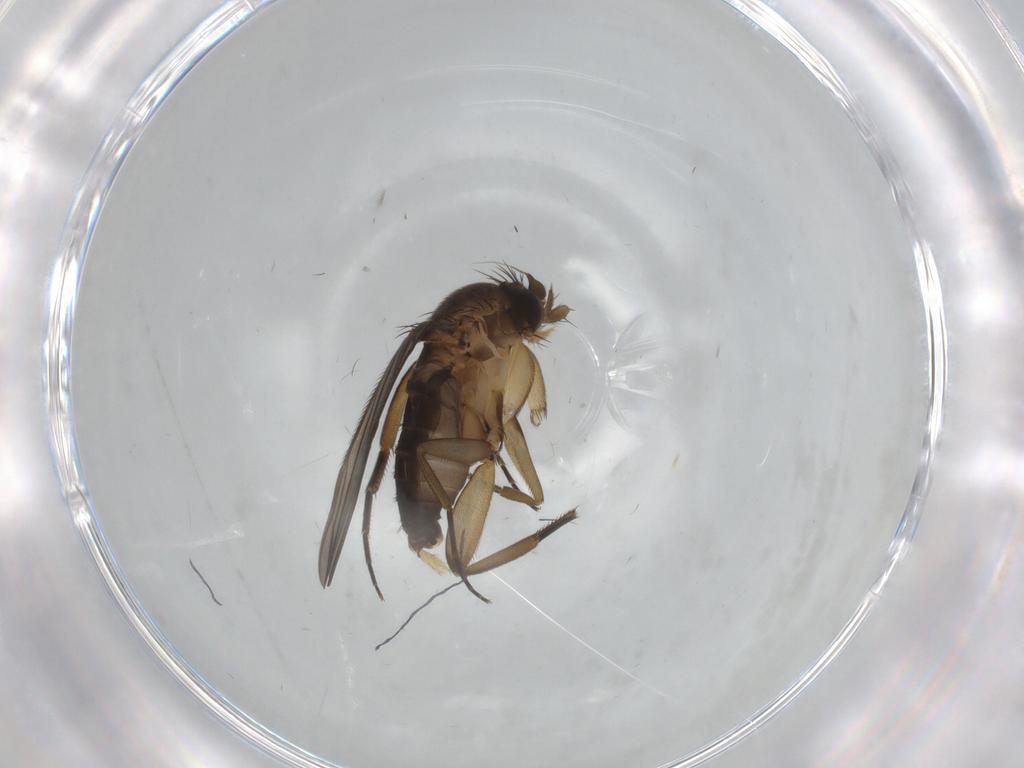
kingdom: Animalia
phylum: Arthropoda
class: Insecta
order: Diptera
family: Phoridae
